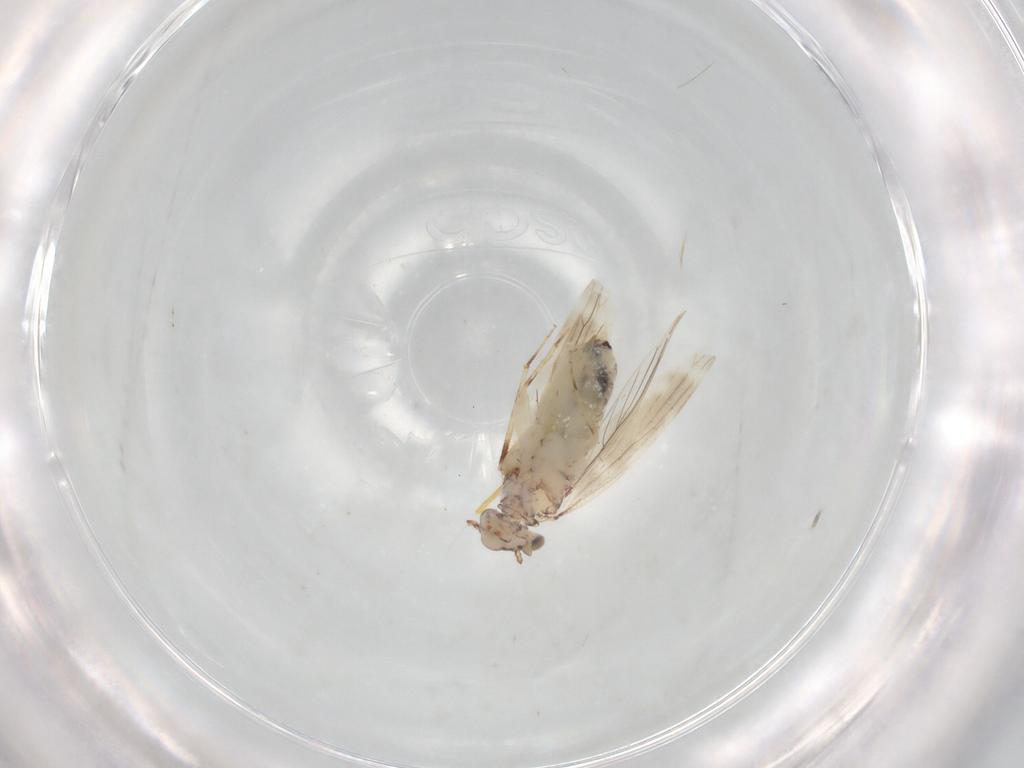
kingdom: Animalia
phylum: Arthropoda
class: Insecta
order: Psocodea
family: Lepidopsocidae
